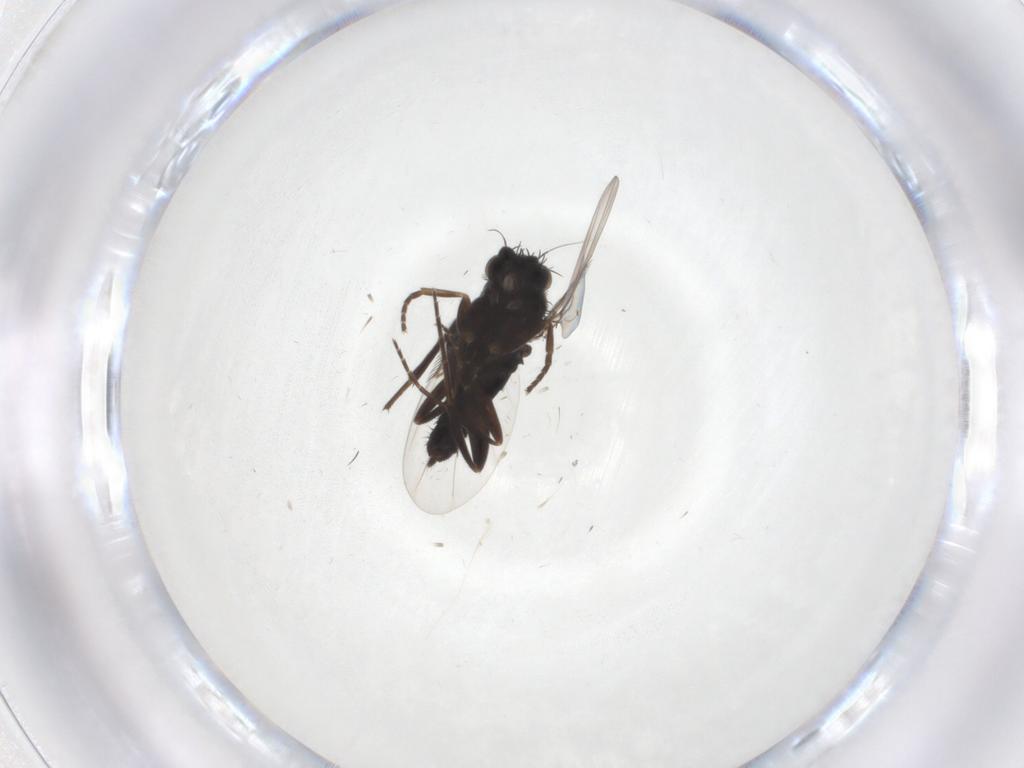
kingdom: Animalia
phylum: Arthropoda
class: Insecta
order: Diptera
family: Phoridae
